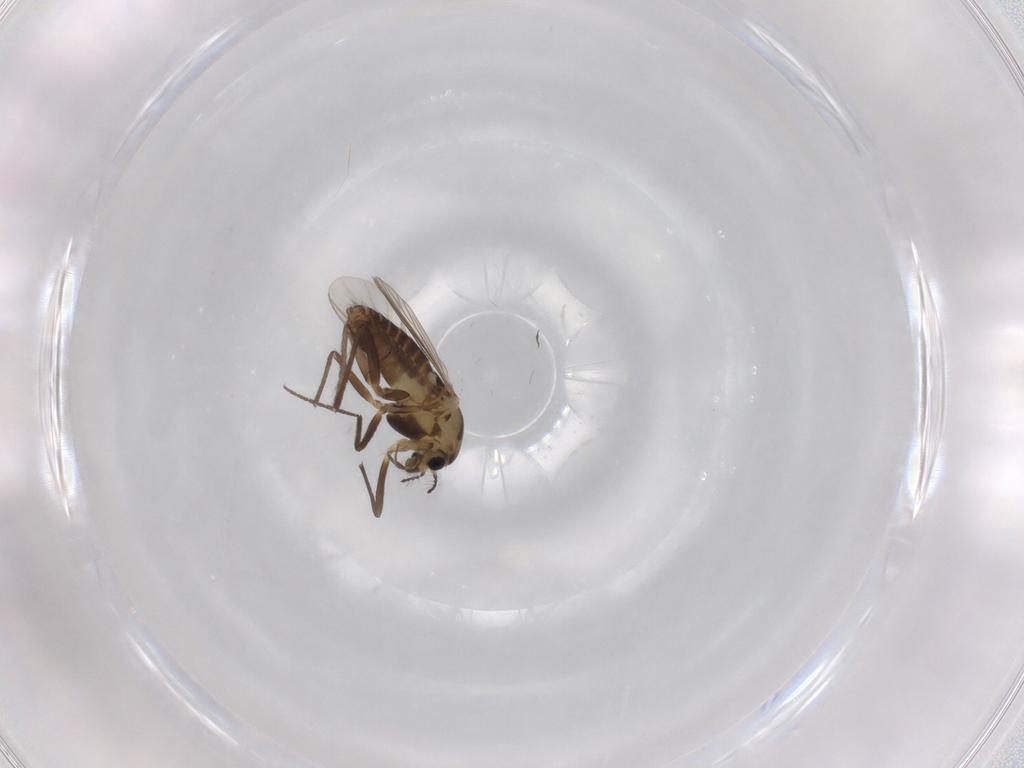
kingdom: Animalia
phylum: Arthropoda
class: Insecta
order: Diptera
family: Chironomidae
